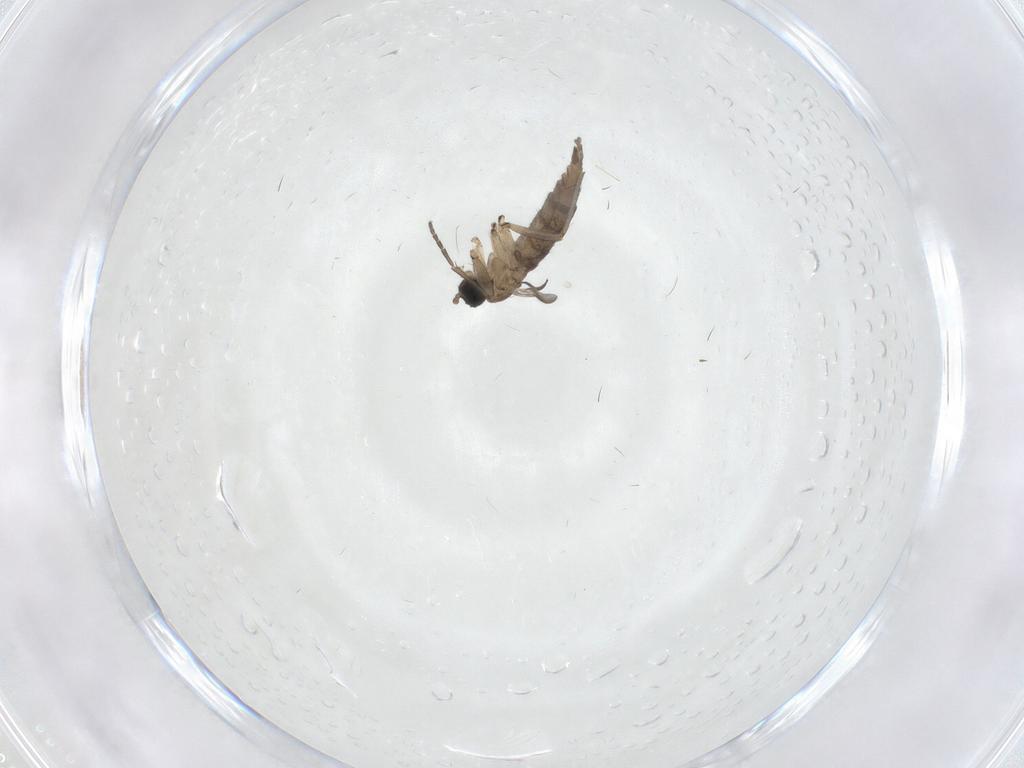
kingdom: Animalia
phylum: Arthropoda
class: Insecta
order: Diptera
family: Sciaridae
